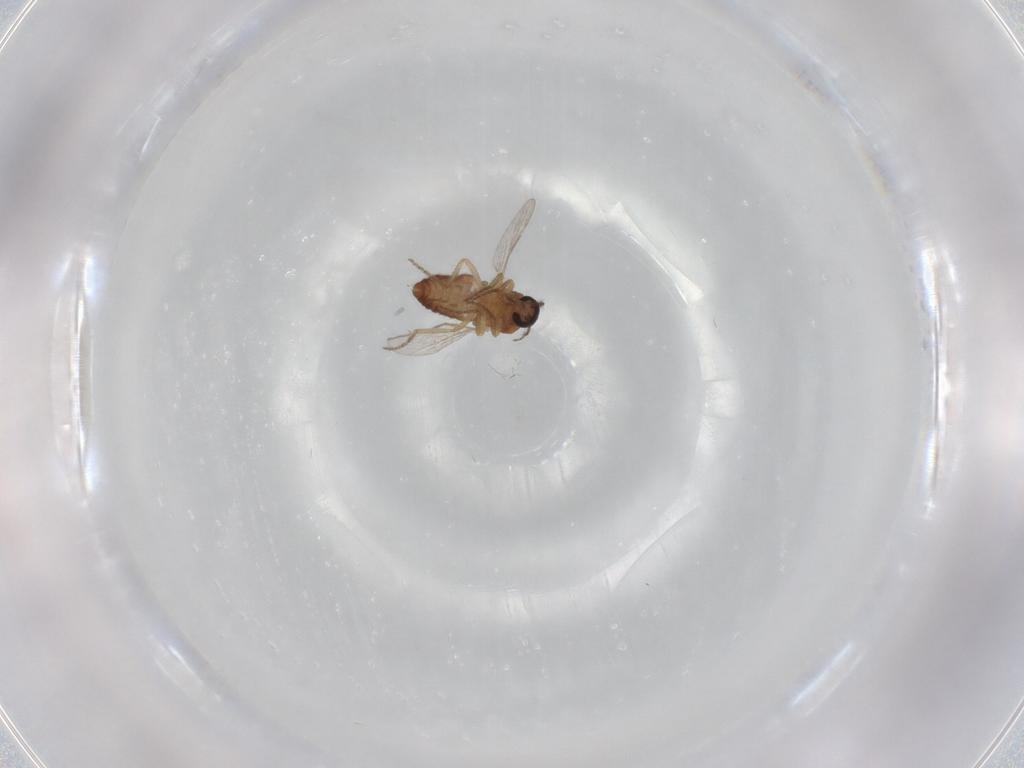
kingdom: Animalia
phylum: Arthropoda
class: Insecta
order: Diptera
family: Ceratopogonidae
